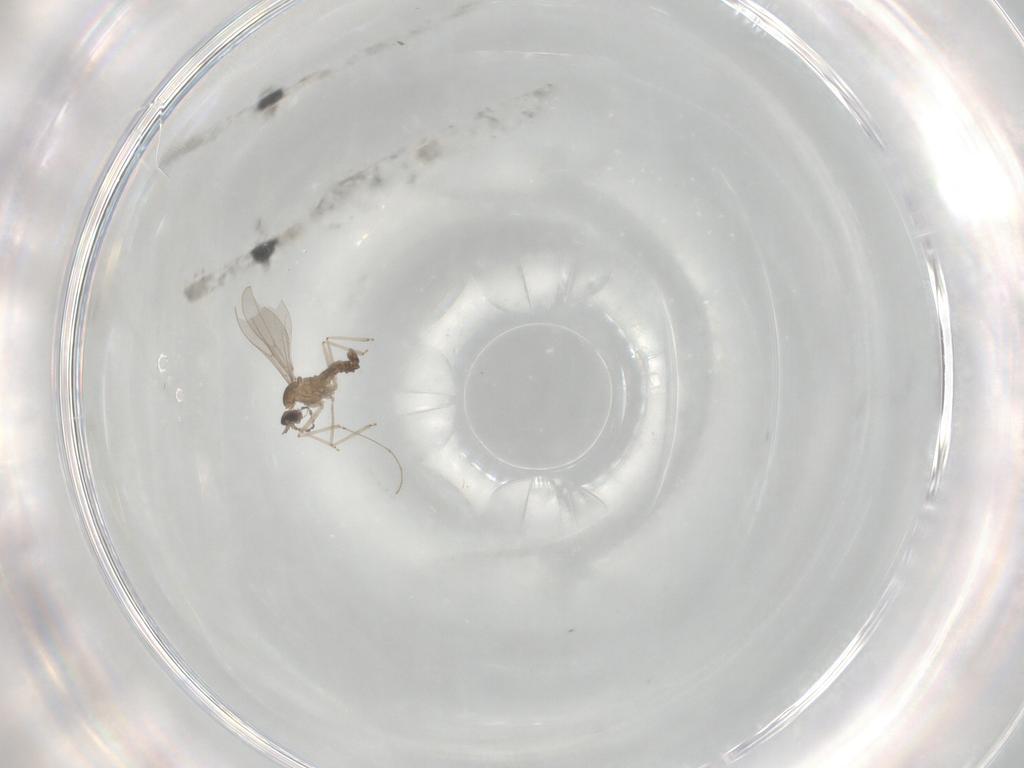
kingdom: Animalia
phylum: Arthropoda
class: Insecta
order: Diptera
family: Cecidomyiidae
